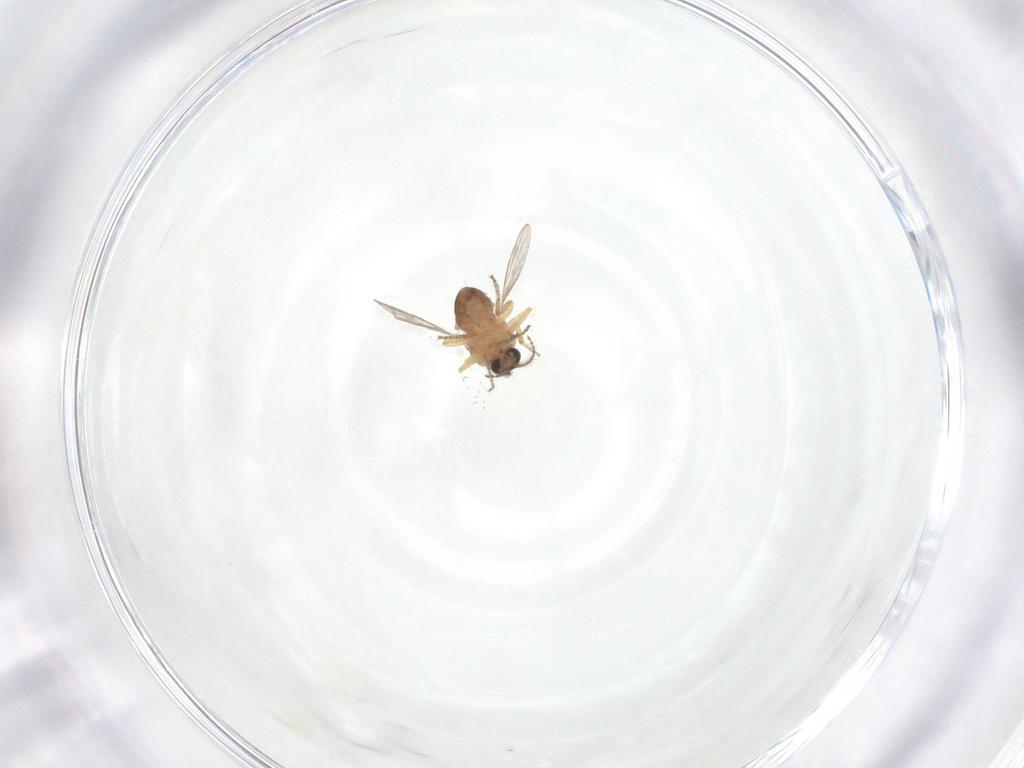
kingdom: Animalia
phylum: Arthropoda
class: Insecta
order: Diptera
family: Ceratopogonidae
